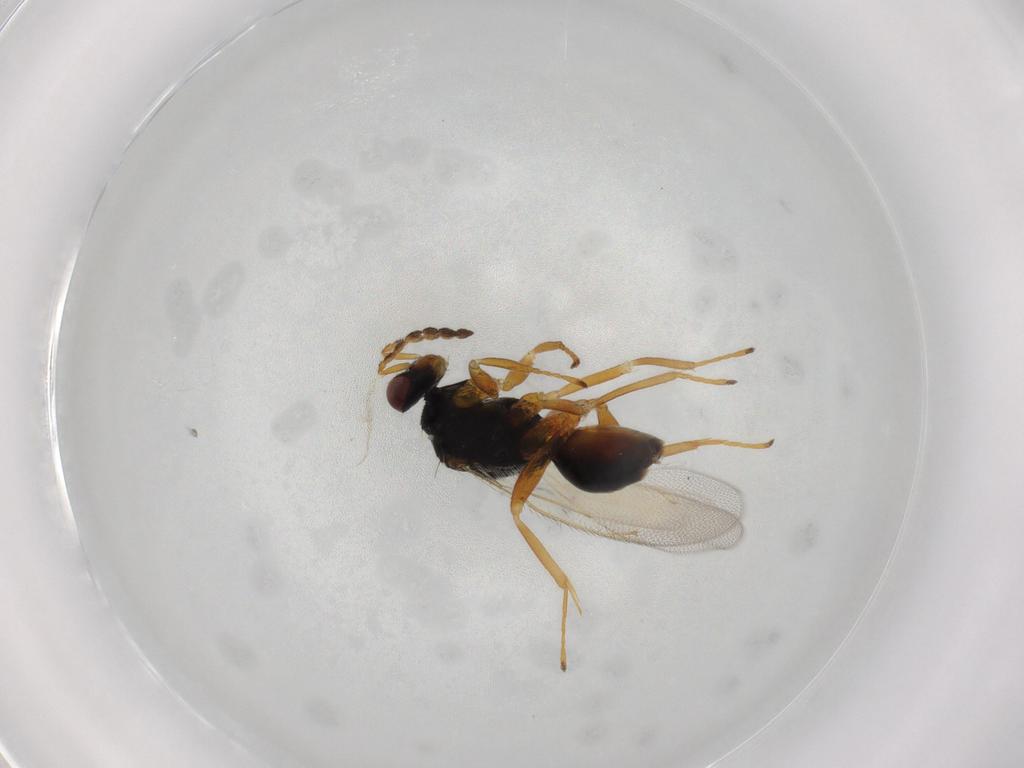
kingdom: Animalia
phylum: Arthropoda
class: Insecta
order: Hymenoptera
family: Eulophidae
